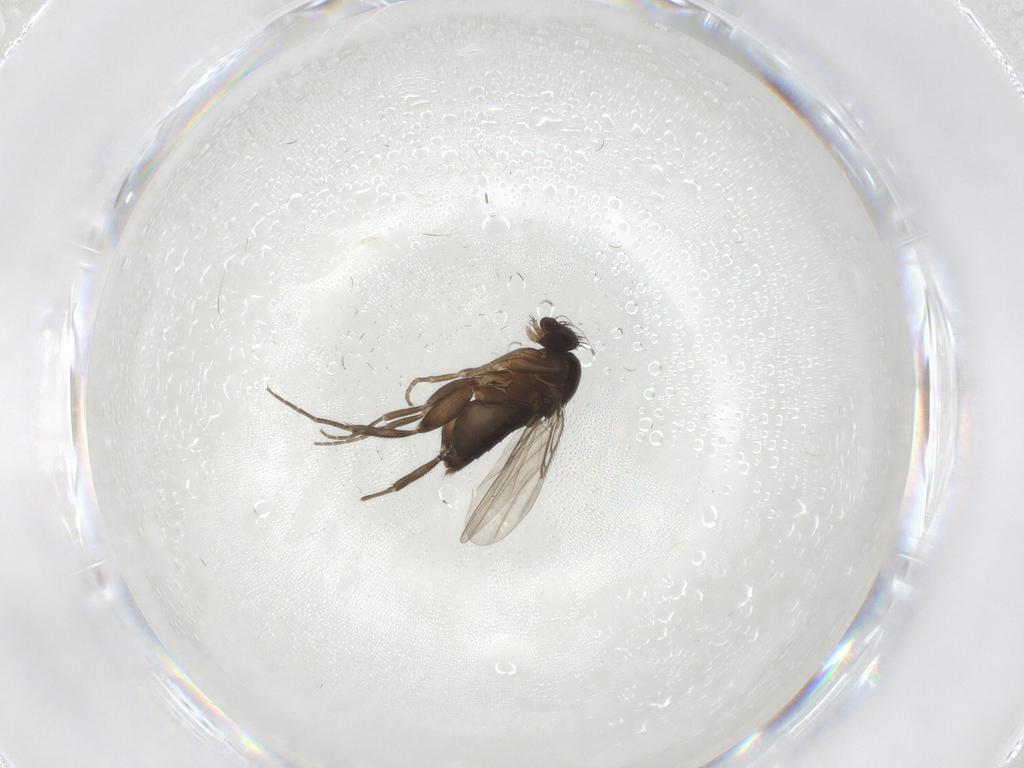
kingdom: Animalia
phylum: Arthropoda
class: Insecta
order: Diptera
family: Phoridae
